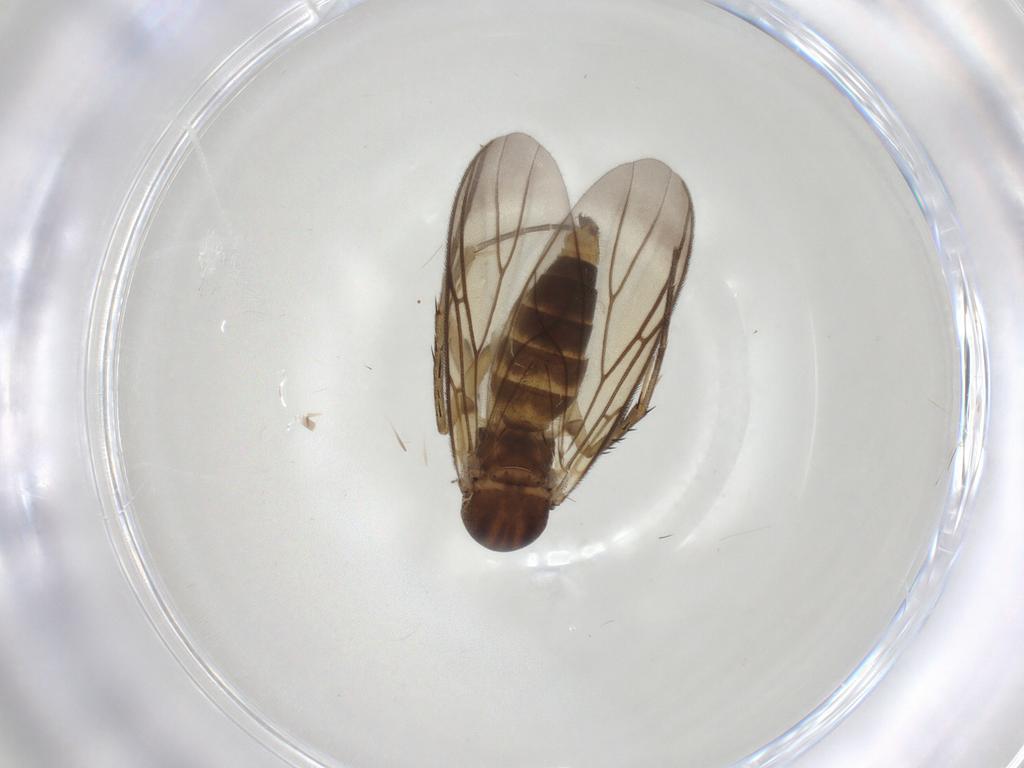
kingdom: Animalia
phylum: Arthropoda
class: Insecta
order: Diptera
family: Mycetophilidae
